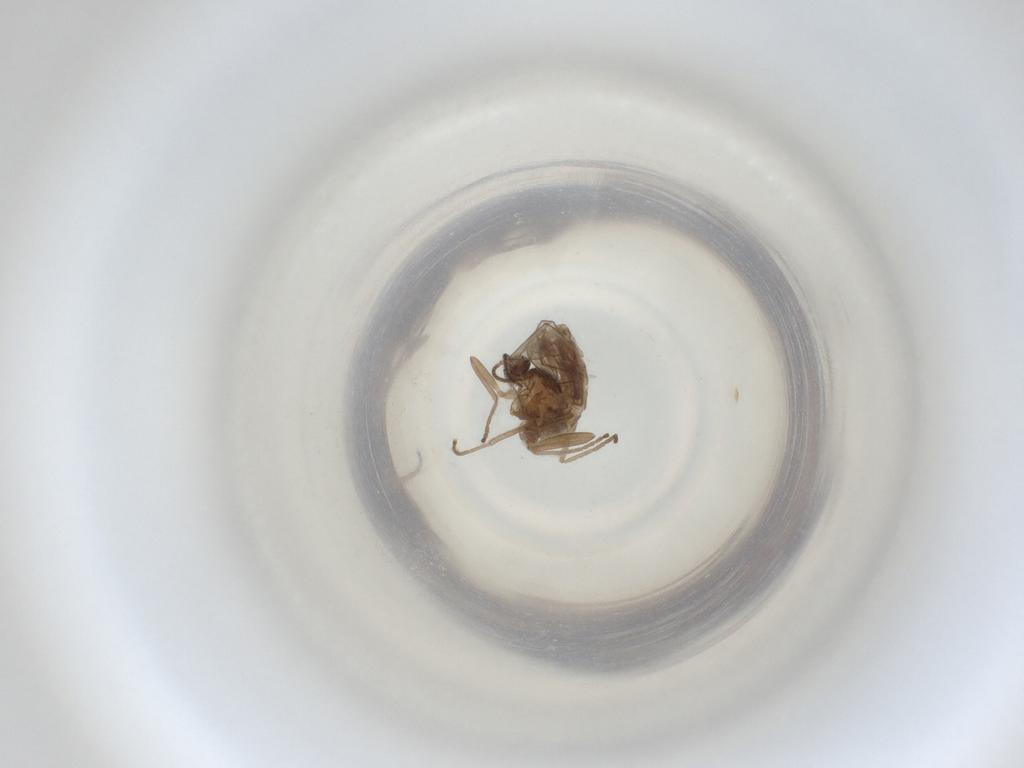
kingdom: Animalia
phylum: Arthropoda
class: Insecta
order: Diptera
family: Cecidomyiidae
